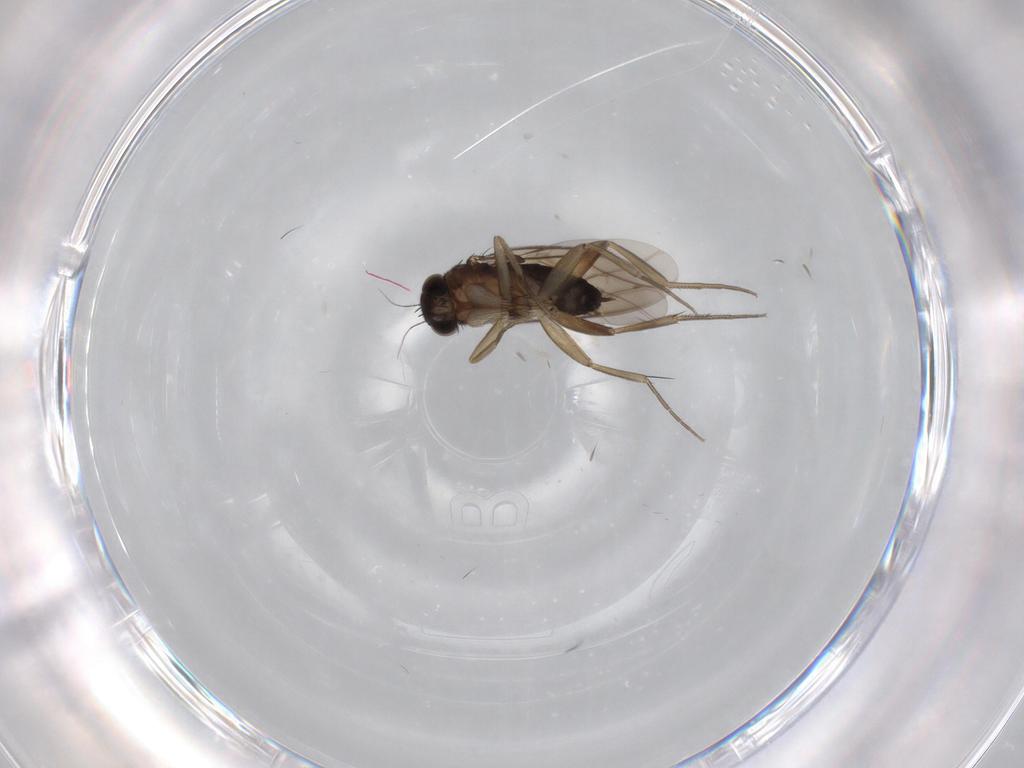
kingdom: Animalia
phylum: Arthropoda
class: Insecta
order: Diptera
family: Phoridae
